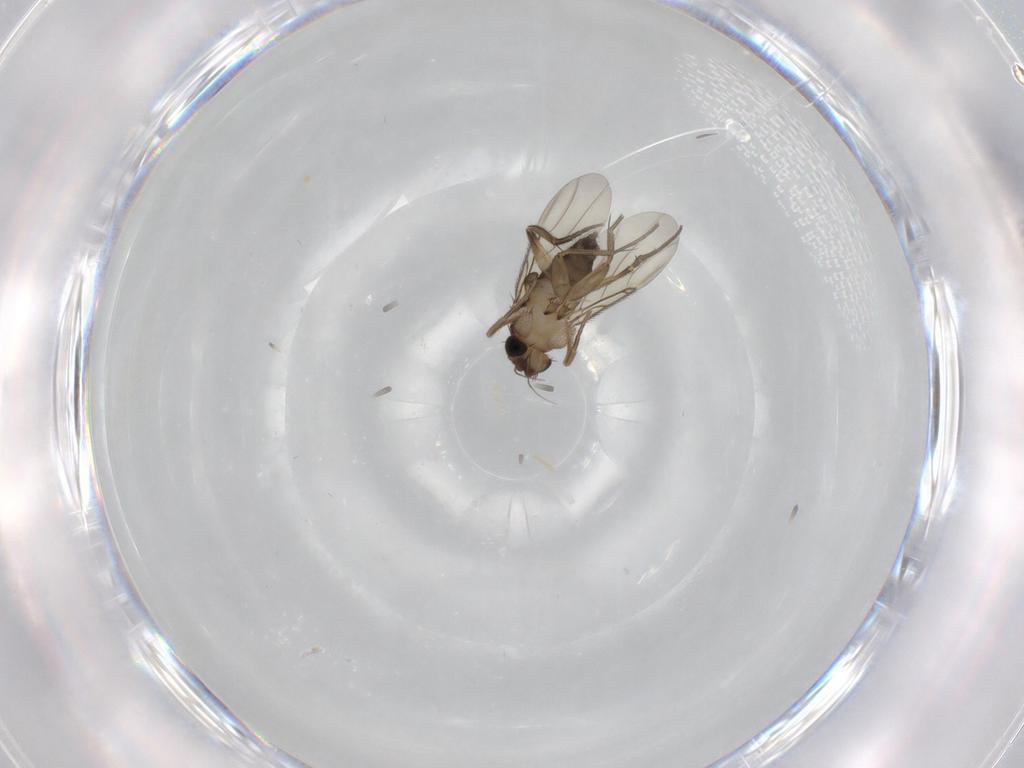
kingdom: Animalia
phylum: Arthropoda
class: Insecta
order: Diptera
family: Phoridae
